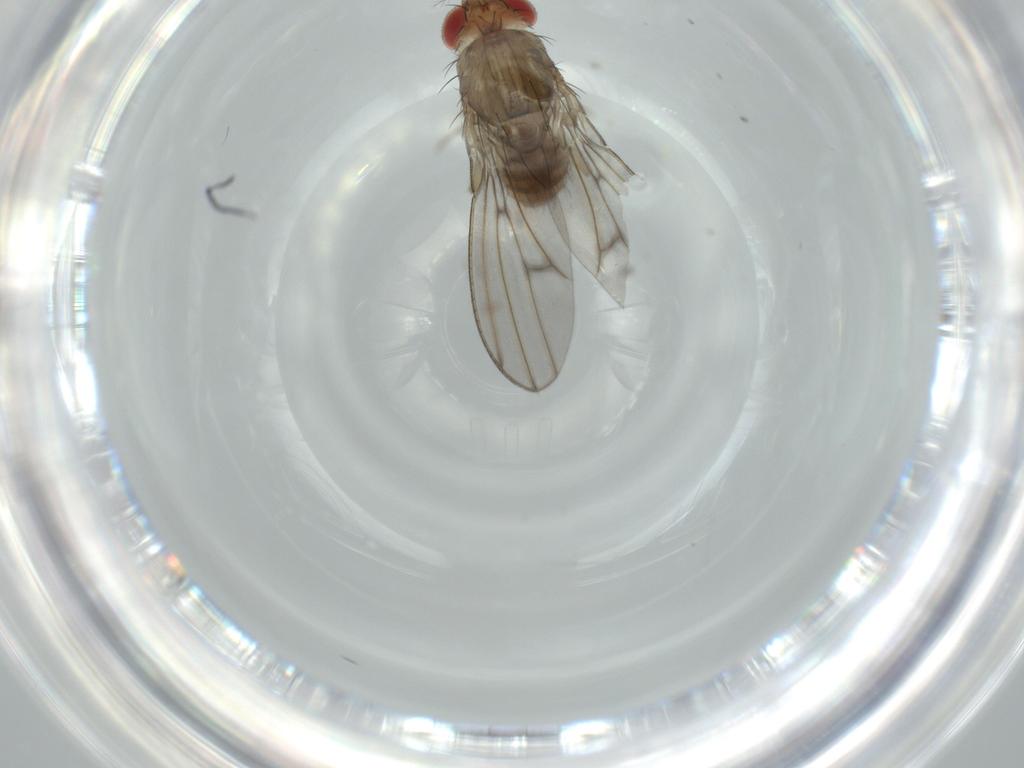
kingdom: Animalia
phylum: Arthropoda
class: Insecta
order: Diptera
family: Drosophilidae
